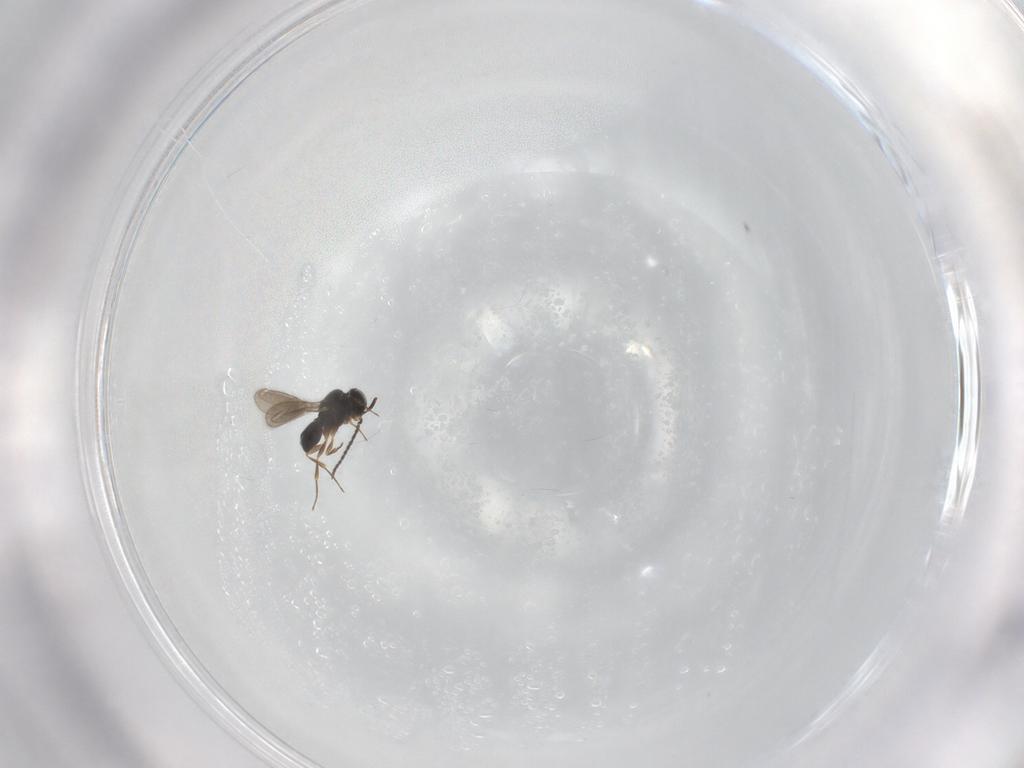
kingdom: Animalia
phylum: Arthropoda
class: Insecta
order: Hymenoptera
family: Scelionidae
